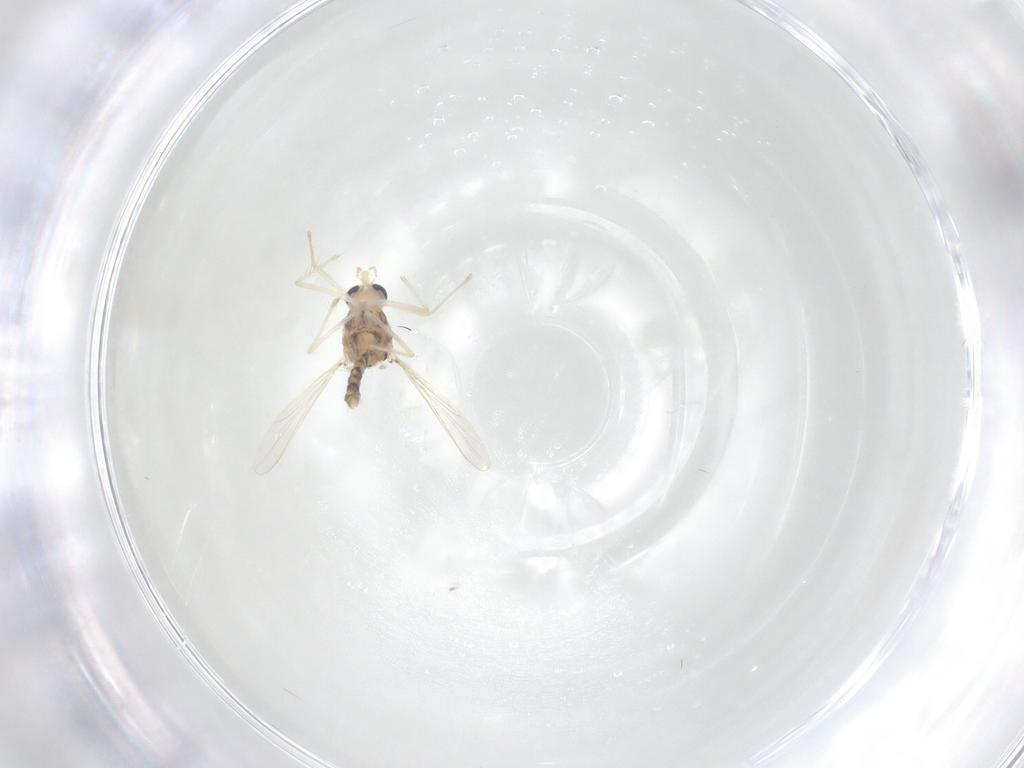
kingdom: Animalia
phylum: Arthropoda
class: Insecta
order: Diptera
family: Chironomidae
